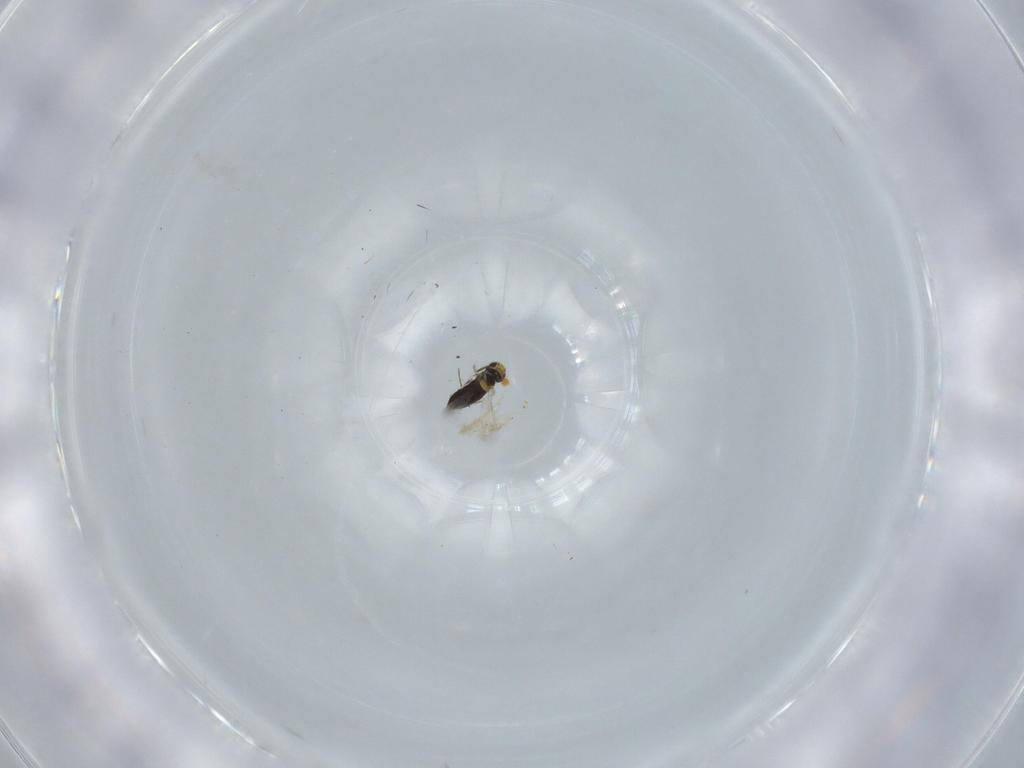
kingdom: Animalia
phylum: Arthropoda
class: Insecta
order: Hymenoptera
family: Signiphoridae
